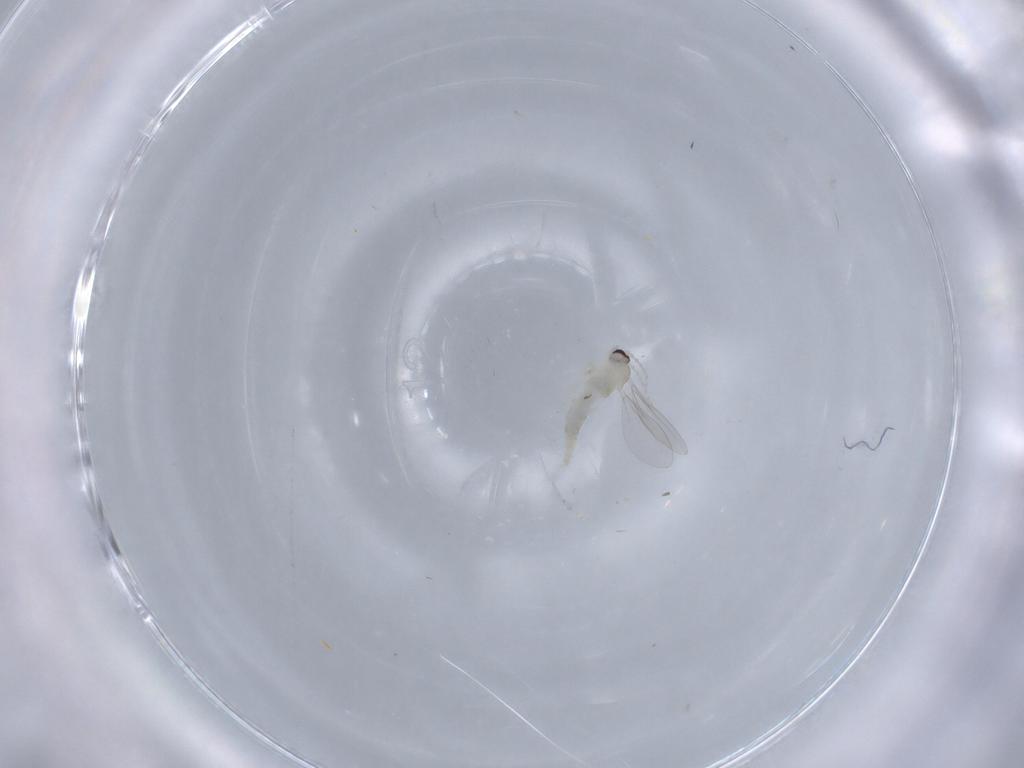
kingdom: Animalia
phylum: Arthropoda
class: Insecta
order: Diptera
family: Cecidomyiidae
